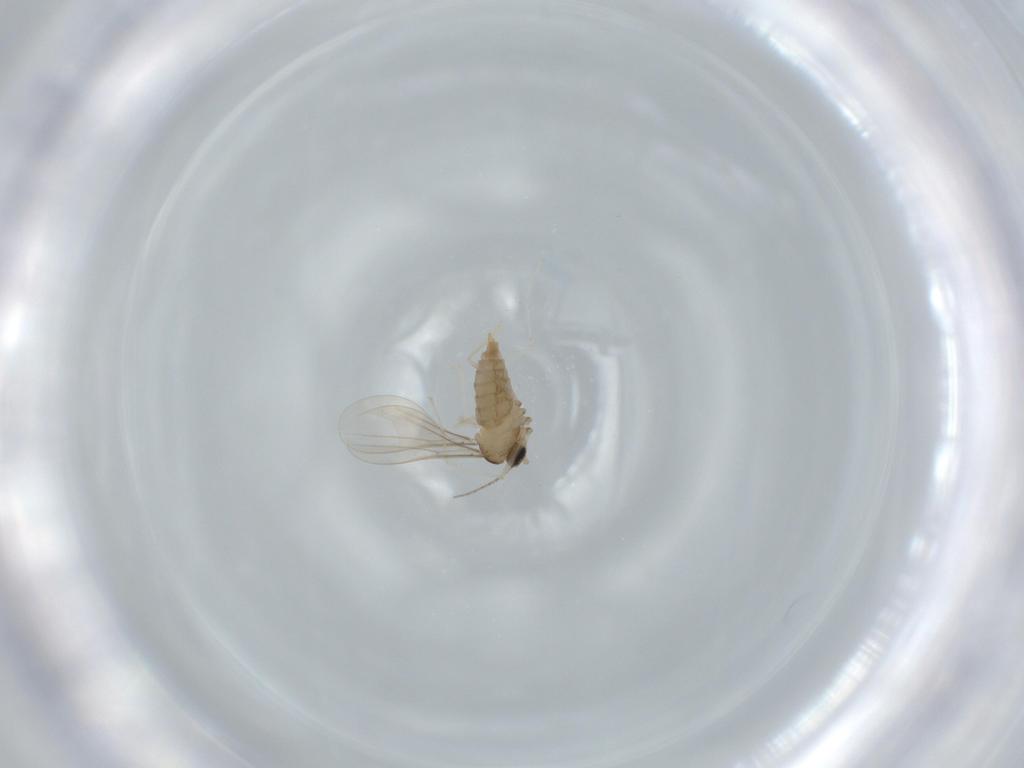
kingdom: Animalia
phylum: Arthropoda
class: Insecta
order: Diptera
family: Cecidomyiidae
